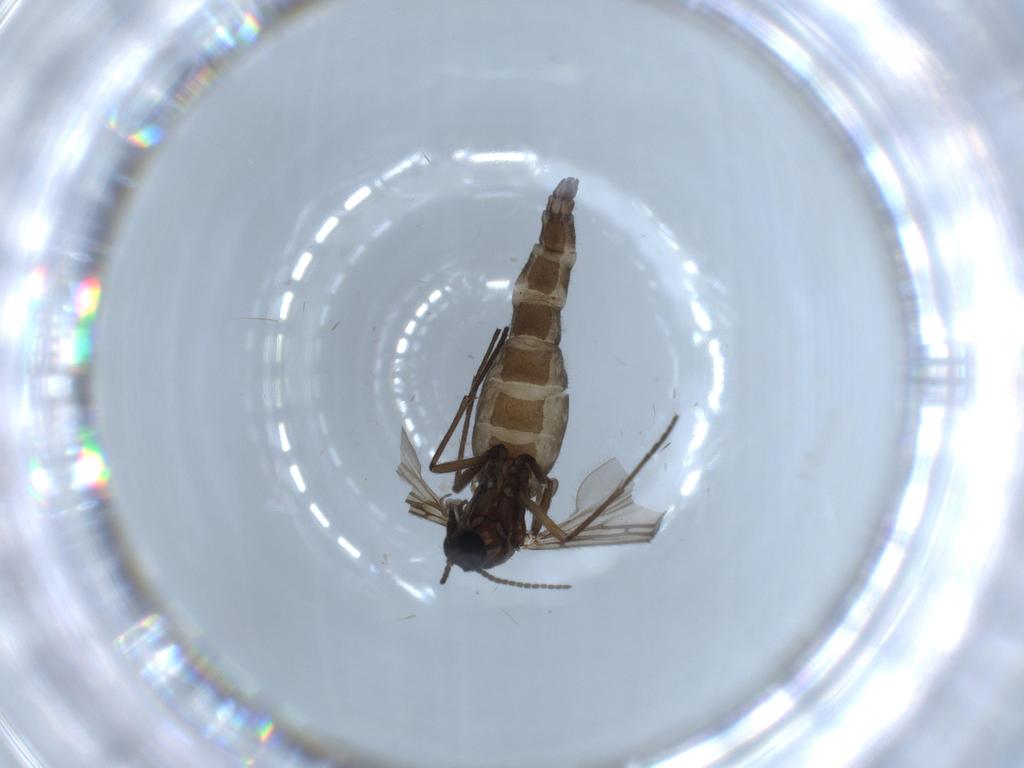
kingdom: Animalia
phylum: Arthropoda
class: Insecta
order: Diptera
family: Sciaridae
